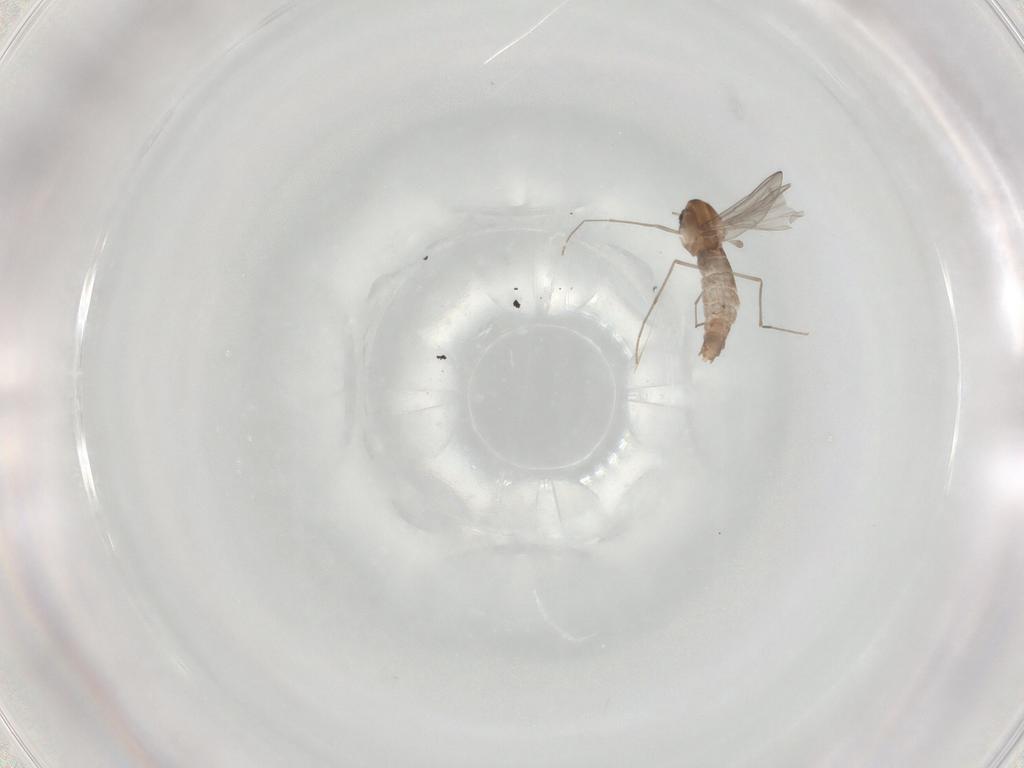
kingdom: Animalia
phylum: Arthropoda
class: Insecta
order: Diptera
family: Chironomidae
